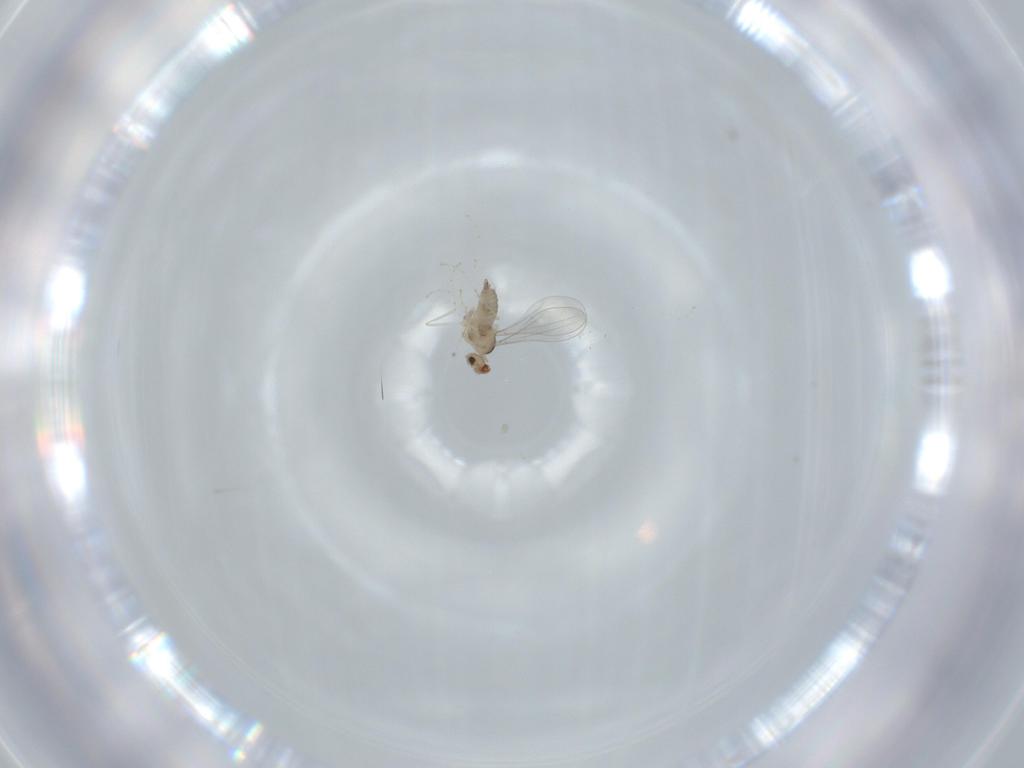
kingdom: Animalia
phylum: Arthropoda
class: Insecta
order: Diptera
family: Cecidomyiidae
